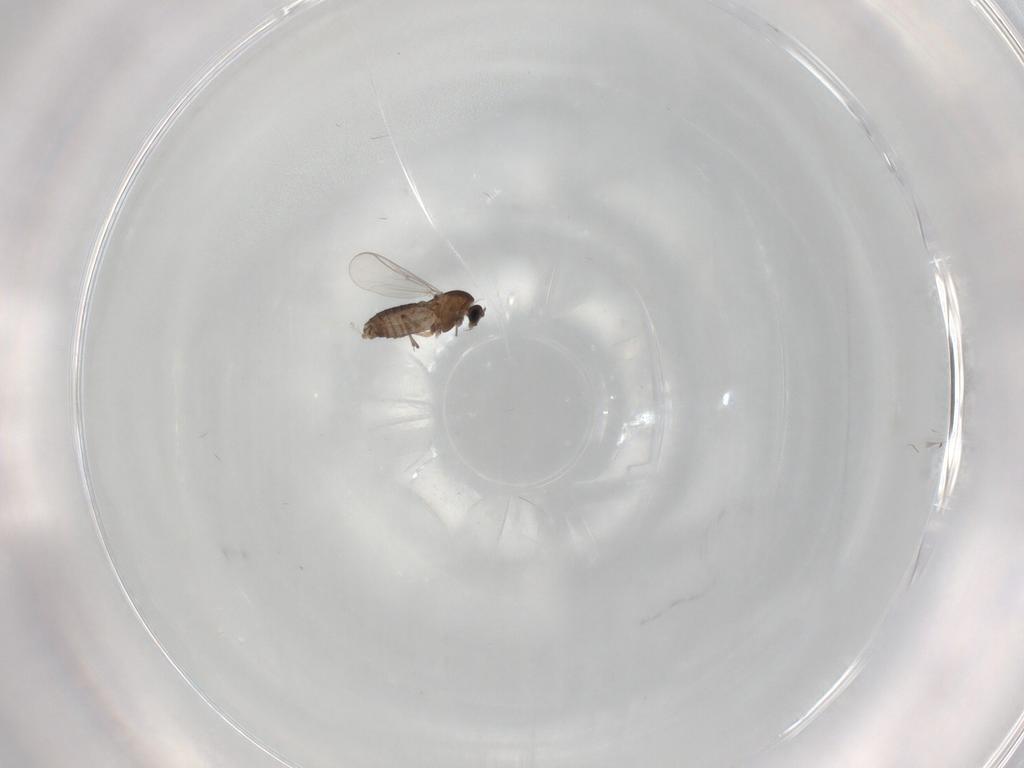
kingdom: Animalia
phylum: Arthropoda
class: Insecta
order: Diptera
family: Chironomidae
